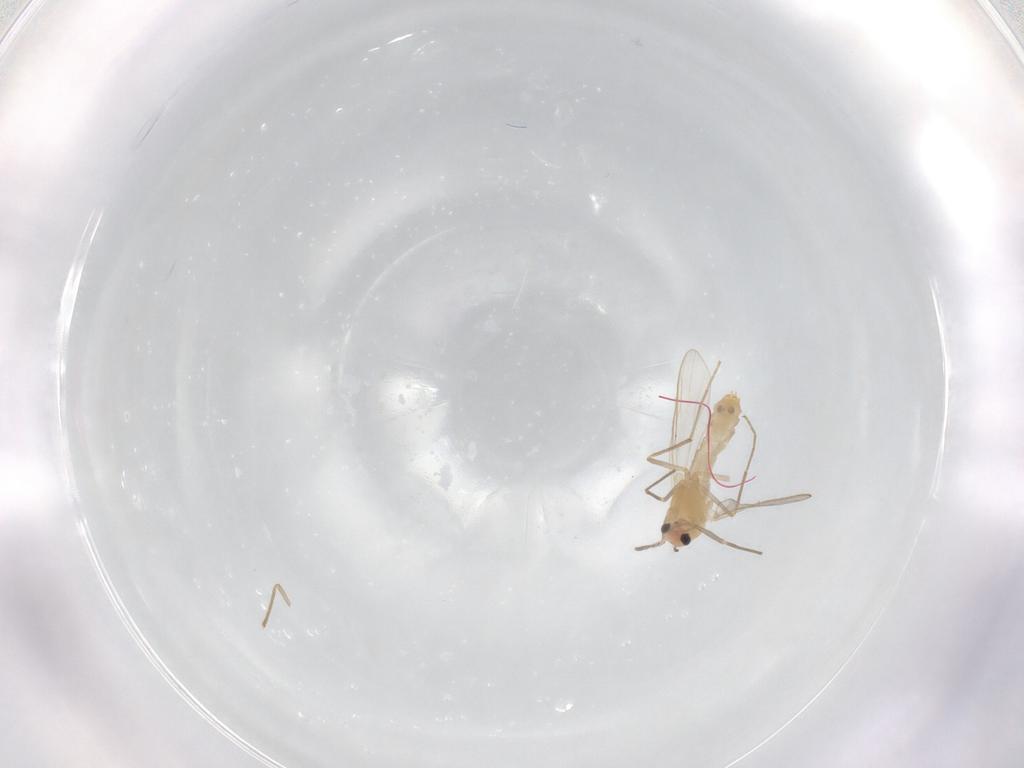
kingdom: Animalia
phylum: Arthropoda
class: Insecta
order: Diptera
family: Chironomidae
